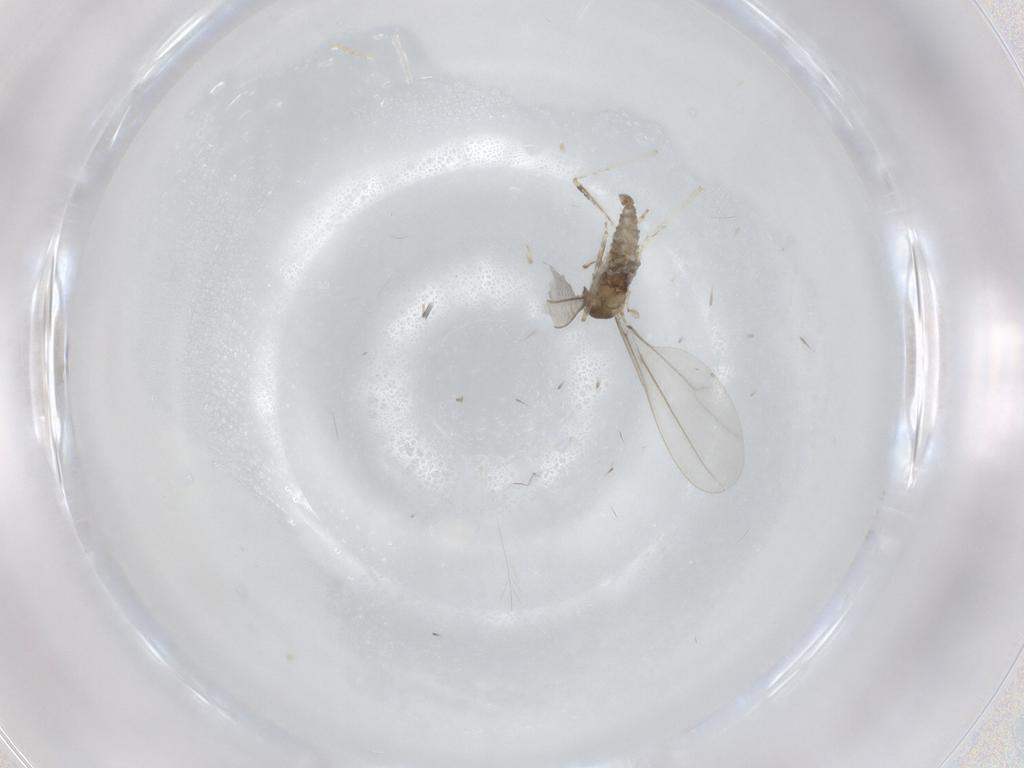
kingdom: Animalia
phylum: Arthropoda
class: Insecta
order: Diptera
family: Cecidomyiidae
